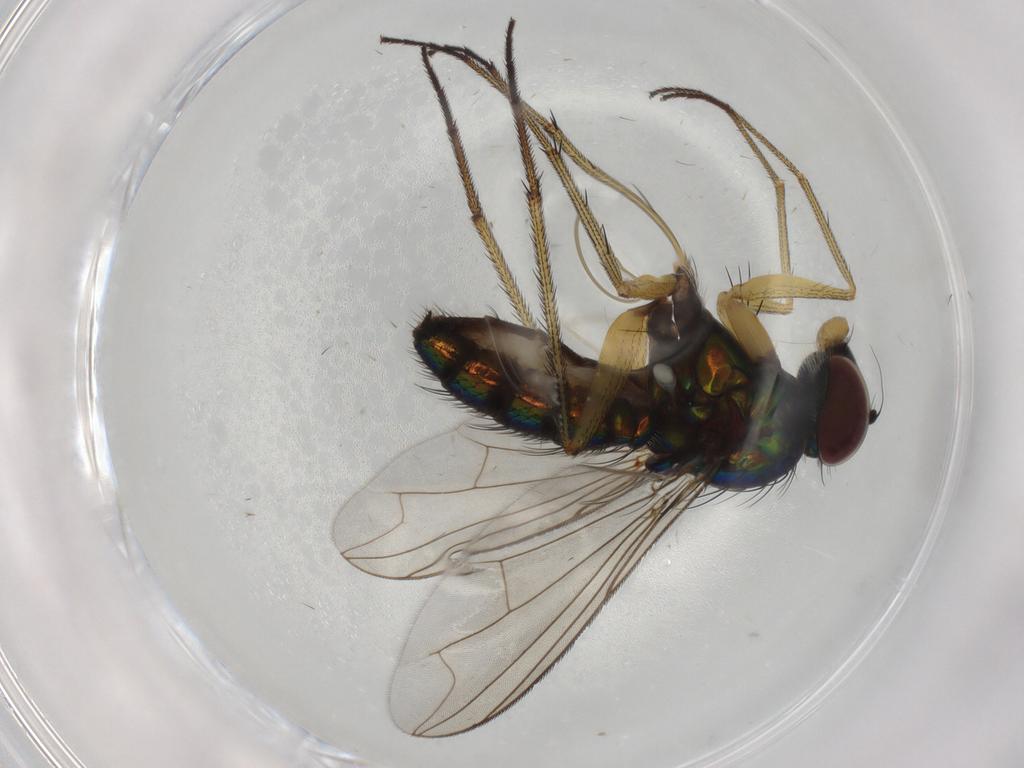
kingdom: Animalia
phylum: Arthropoda
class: Insecta
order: Diptera
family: Dolichopodidae
